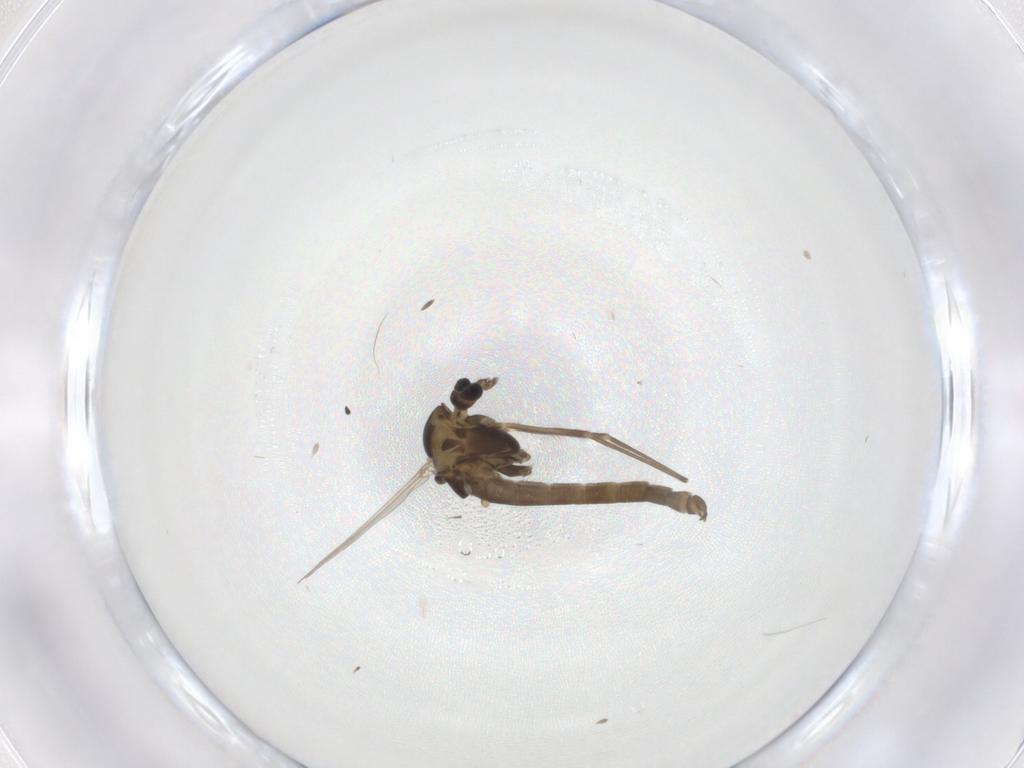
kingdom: Animalia
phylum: Arthropoda
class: Insecta
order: Diptera
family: Chironomidae
